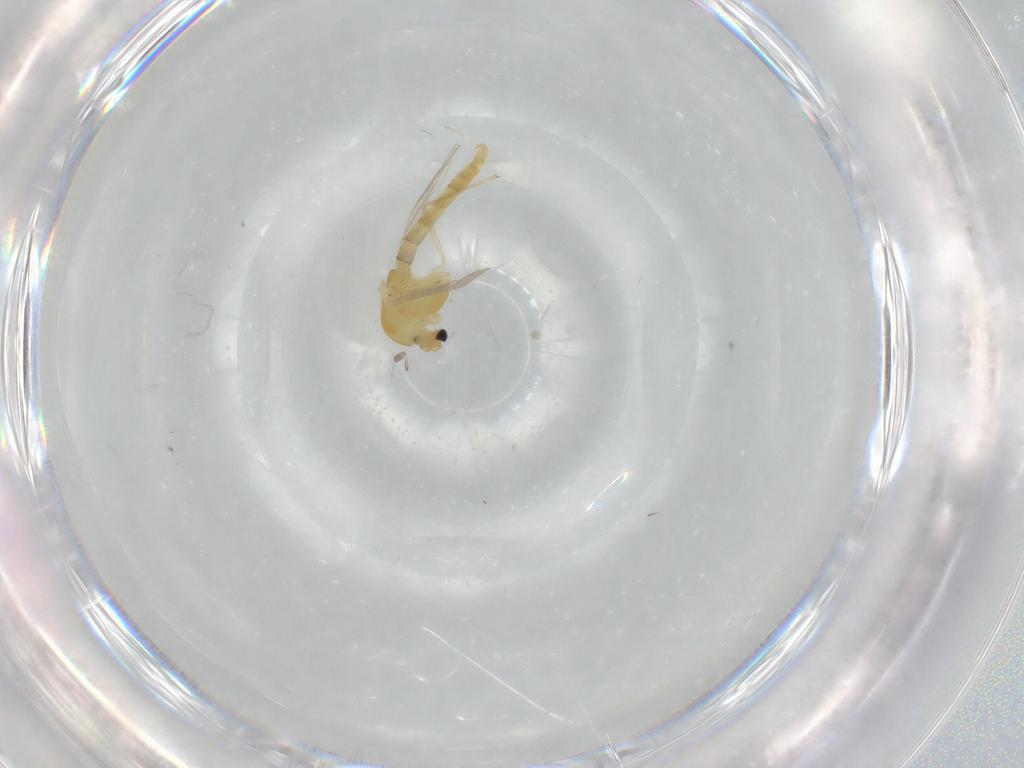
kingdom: Animalia
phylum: Arthropoda
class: Insecta
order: Diptera
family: Chironomidae
